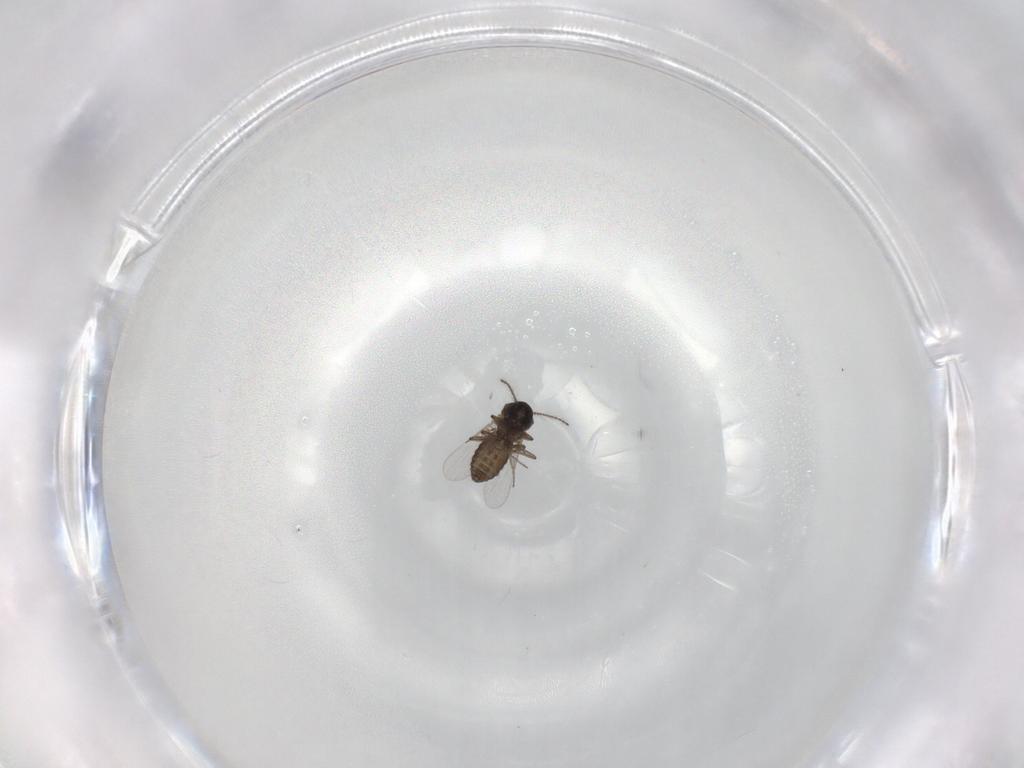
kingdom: Animalia
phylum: Arthropoda
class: Insecta
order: Diptera
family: Ceratopogonidae
